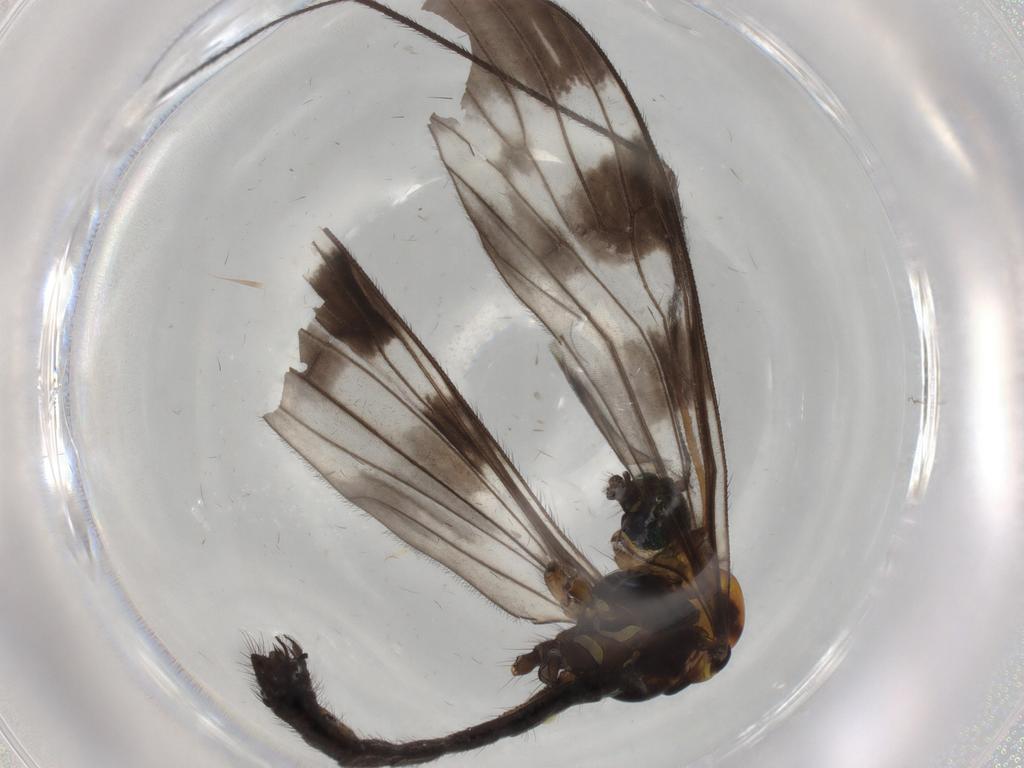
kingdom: Animalia
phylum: Arthropoda
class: Insecta
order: Diptera
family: Limoniidae
